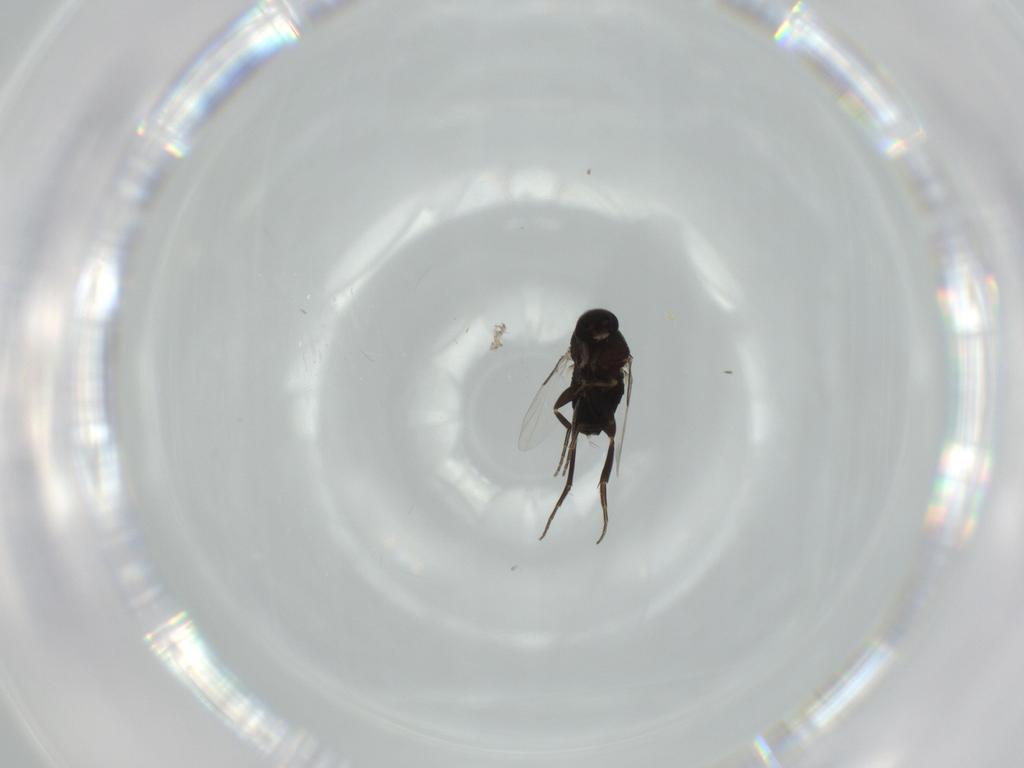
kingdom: Animalia
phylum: Arthropoda
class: Insecta
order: Diptera
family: Phoridae
